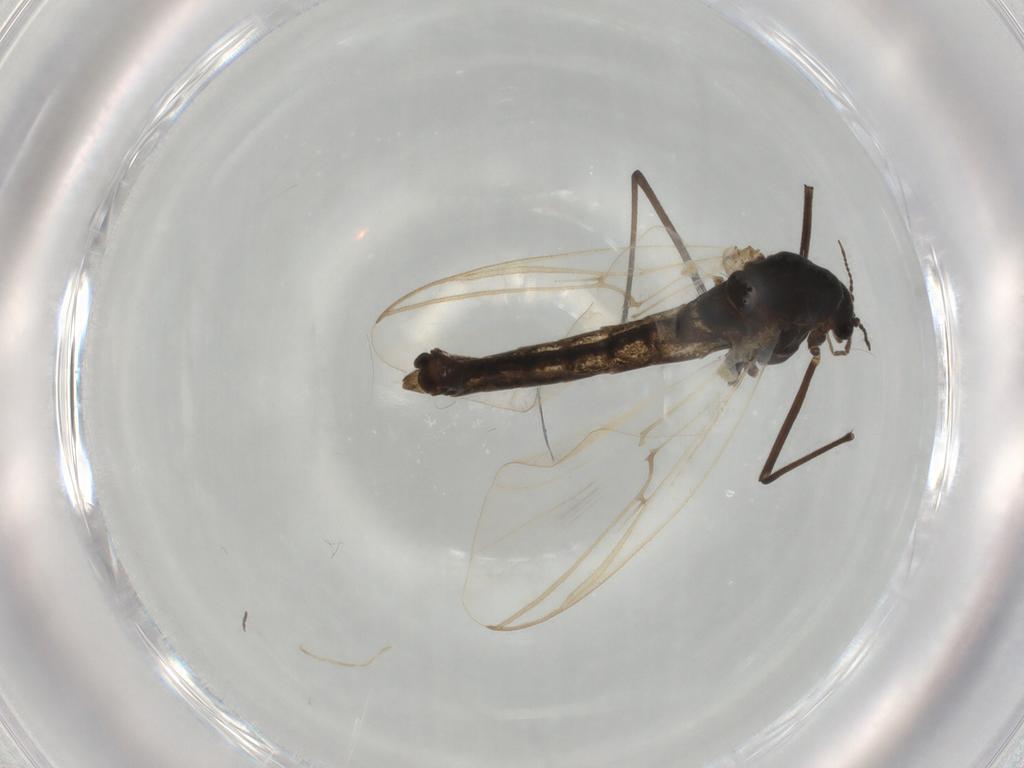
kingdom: Animalia
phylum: Arthropoda
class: Insecta
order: Diptera
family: Chironomidae
